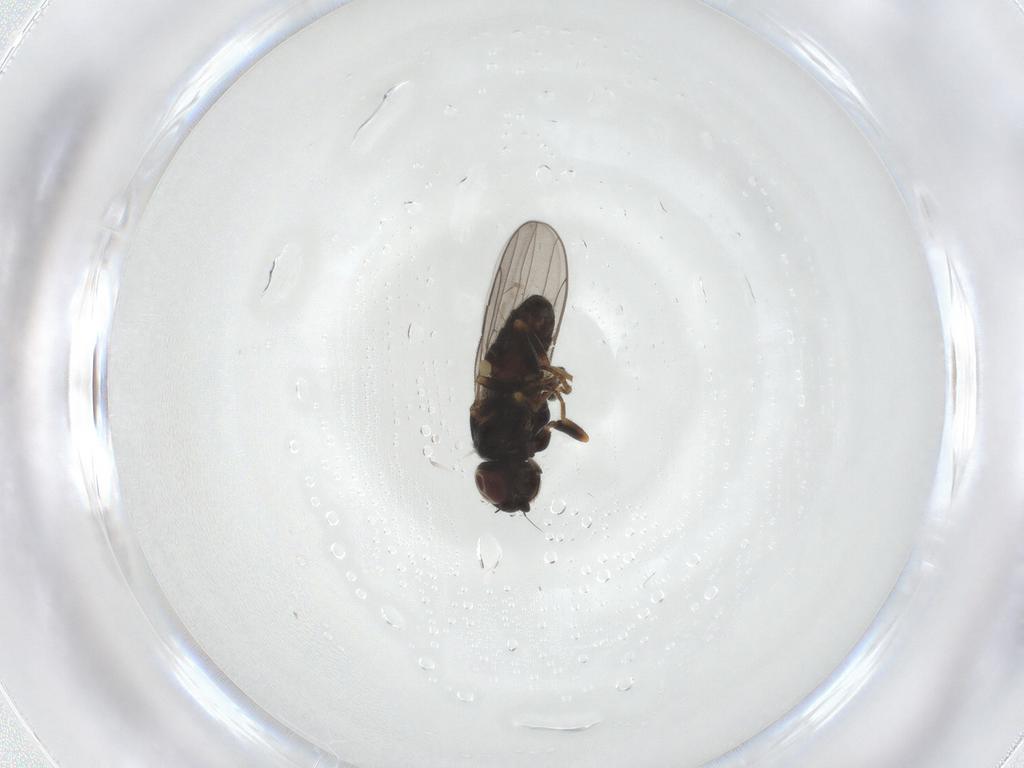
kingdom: Animalia
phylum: Arthropoda
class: Insecta
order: Diptera
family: Chloropidae
